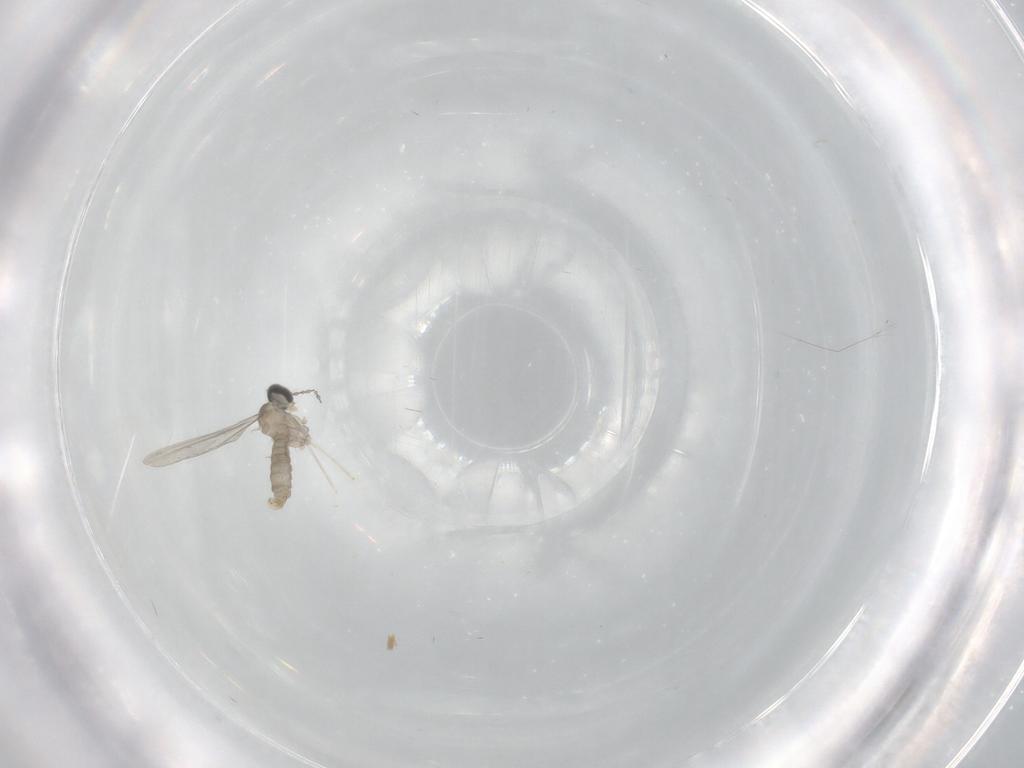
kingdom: Animalia
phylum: Arthropoda
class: Insecta
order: Diptera
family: Cecidomyiidae
